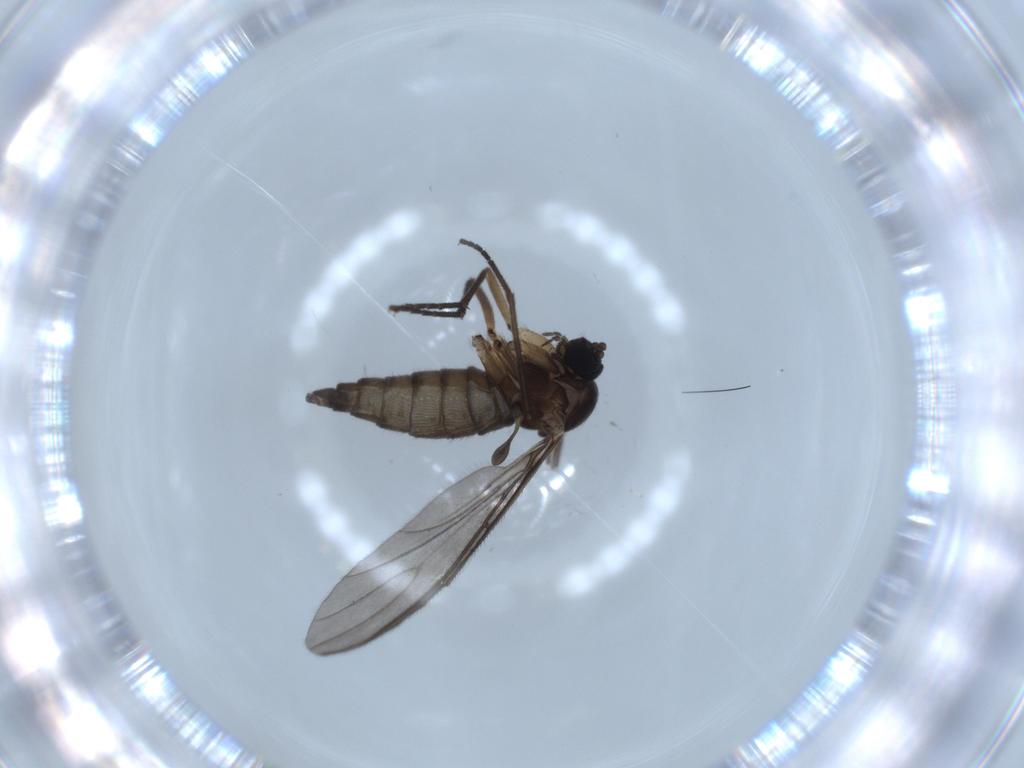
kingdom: Animalia
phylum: Arthropoda
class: Insecta
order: Diptera
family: Sciaridae
